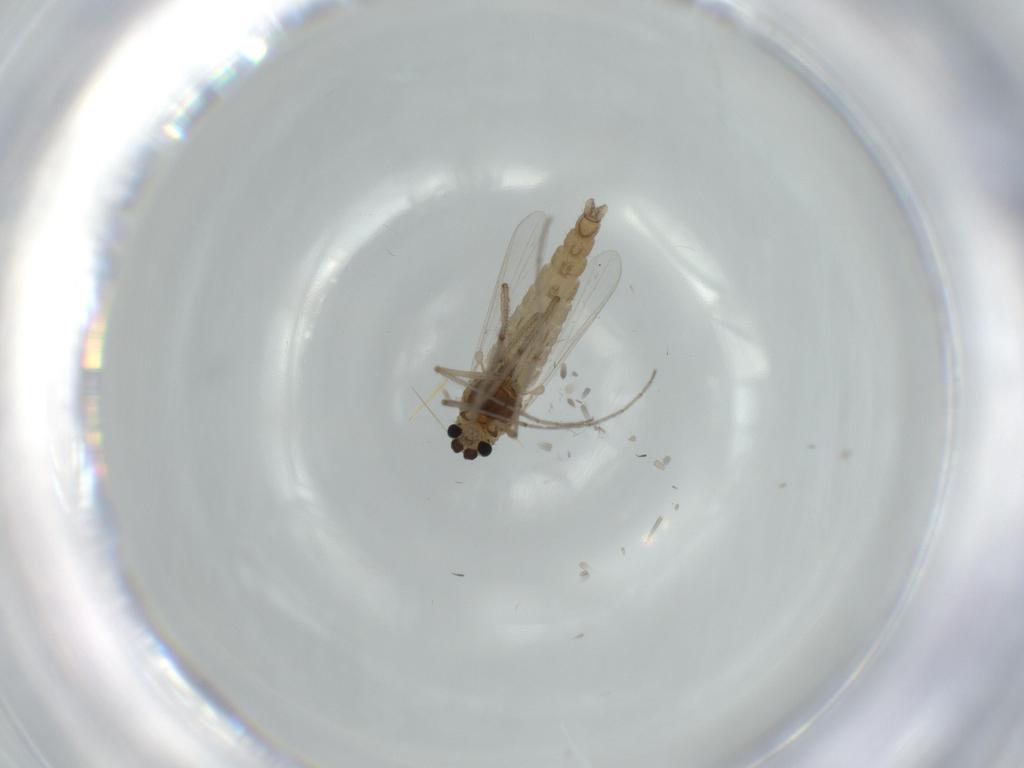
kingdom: Animalia
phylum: Arthropoda
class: Insecta
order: Diptera
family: Chironomidae
